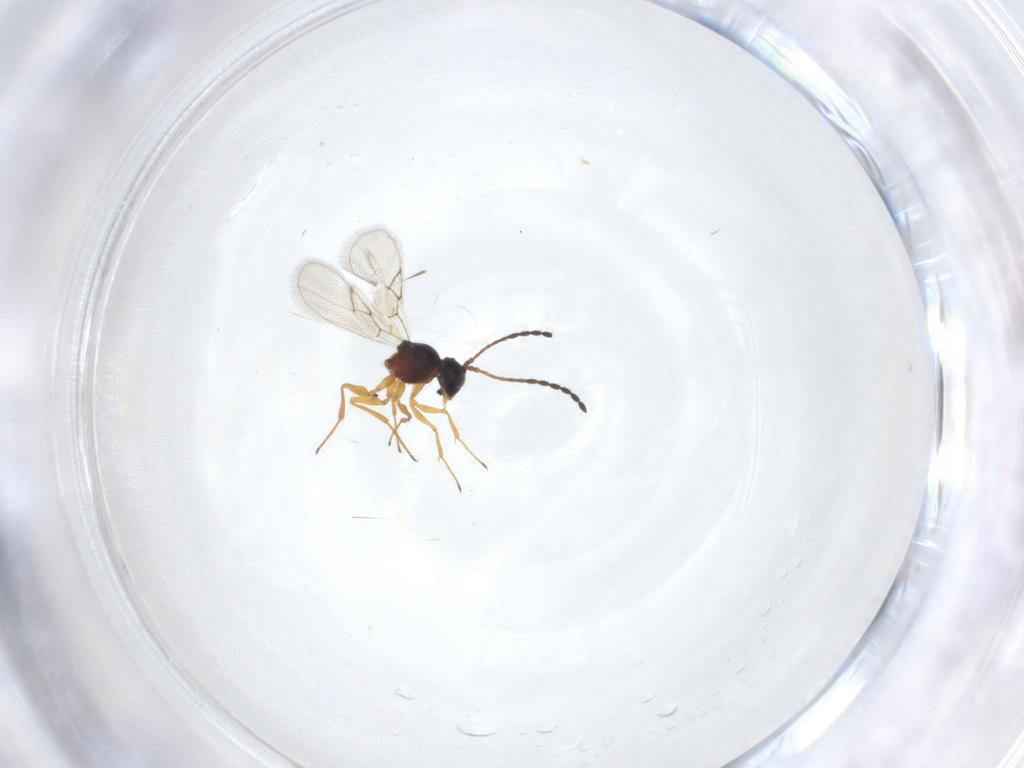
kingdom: Animalia
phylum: Arthropoda
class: Insecta
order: Hymenoptera
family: Figitidae
